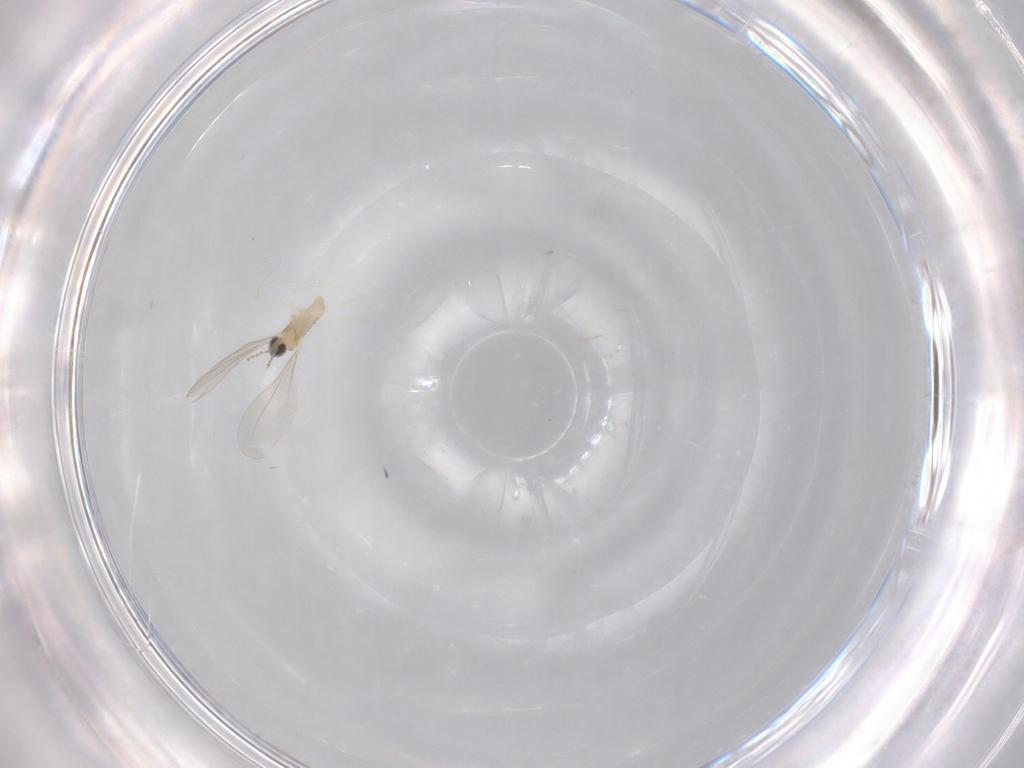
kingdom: Animalia
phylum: Arthropoda
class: Insecta
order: Diptera
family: Cecidomyiidae
